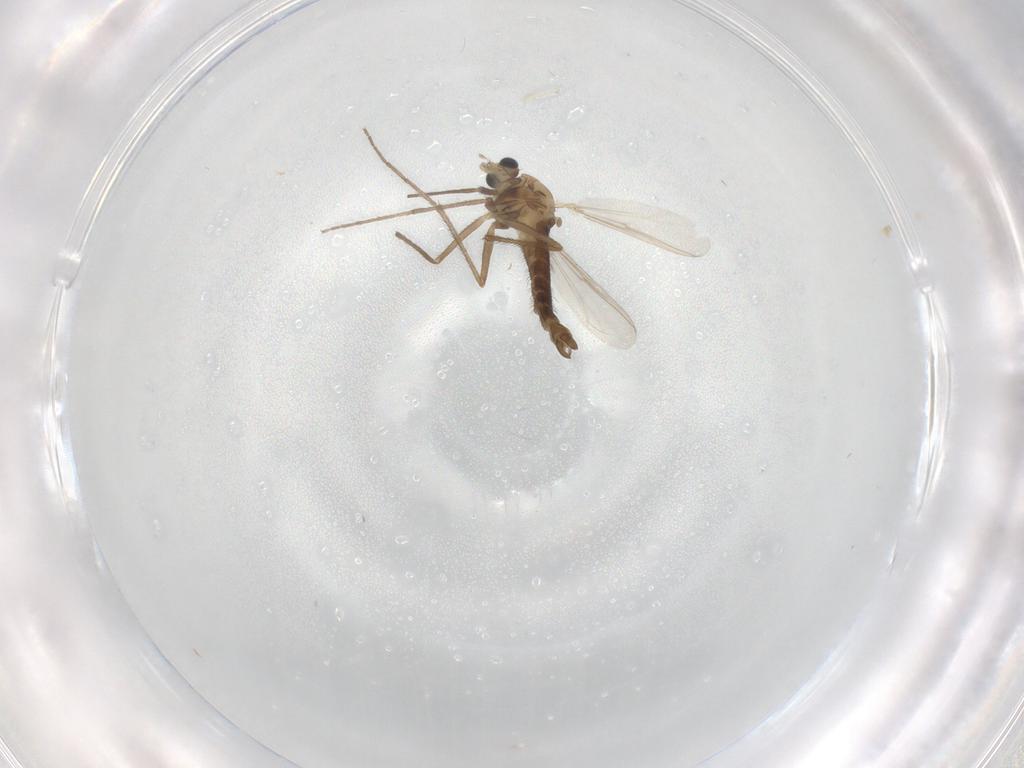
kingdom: Animalia
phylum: Arthropoda
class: Insecta
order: Diptera
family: Chironomidae
